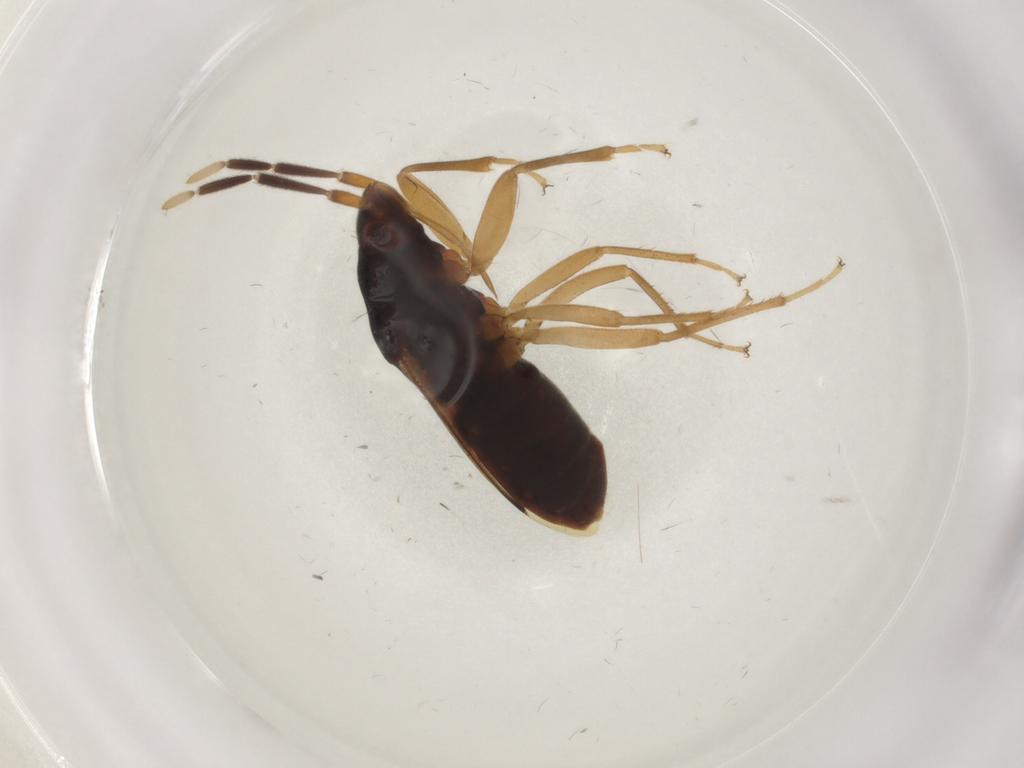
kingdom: Animalia
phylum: Arthropoda
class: Insecta
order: Hemiptera
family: Rhyparochromidae
